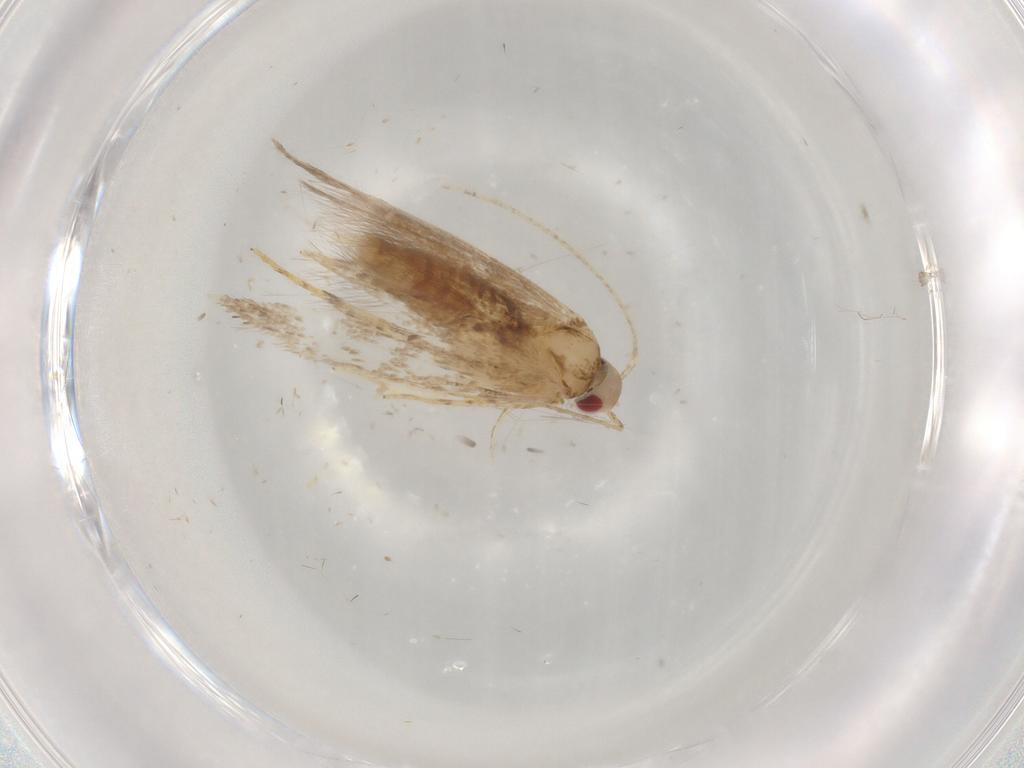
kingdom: Animalia
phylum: Arthropoda
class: Insecta
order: Lepidoptera
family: Cosmopterigidae
